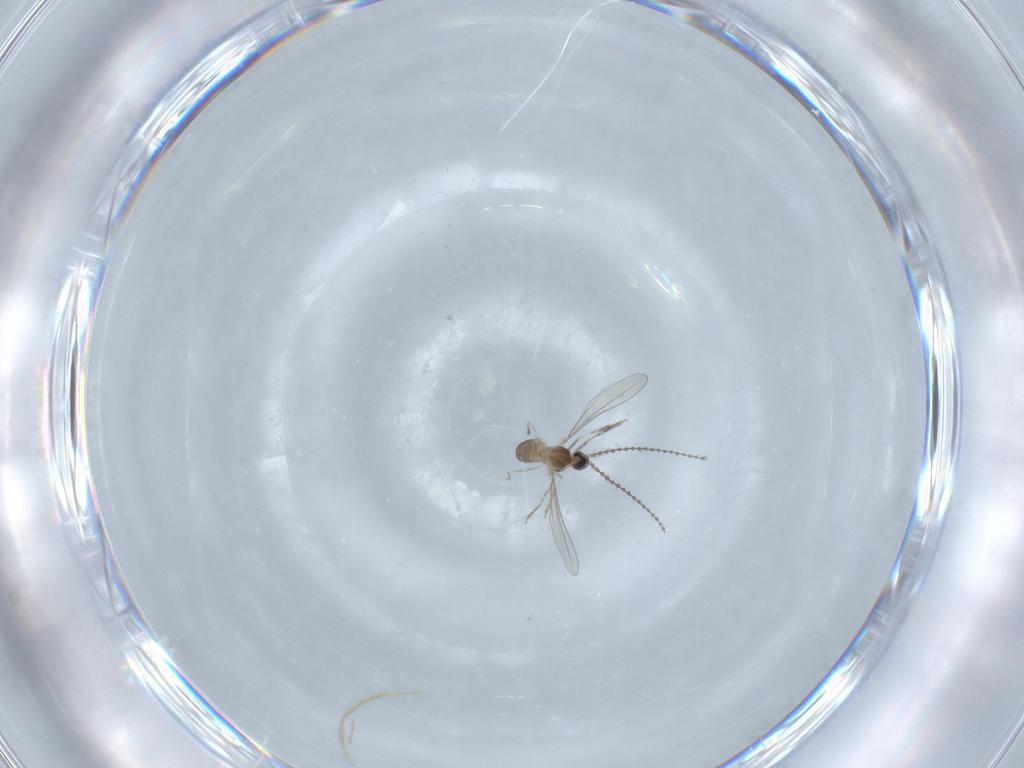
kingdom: Animalia
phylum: Arthropoda
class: Insecta
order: Diptera
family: Cecidomyiidae
